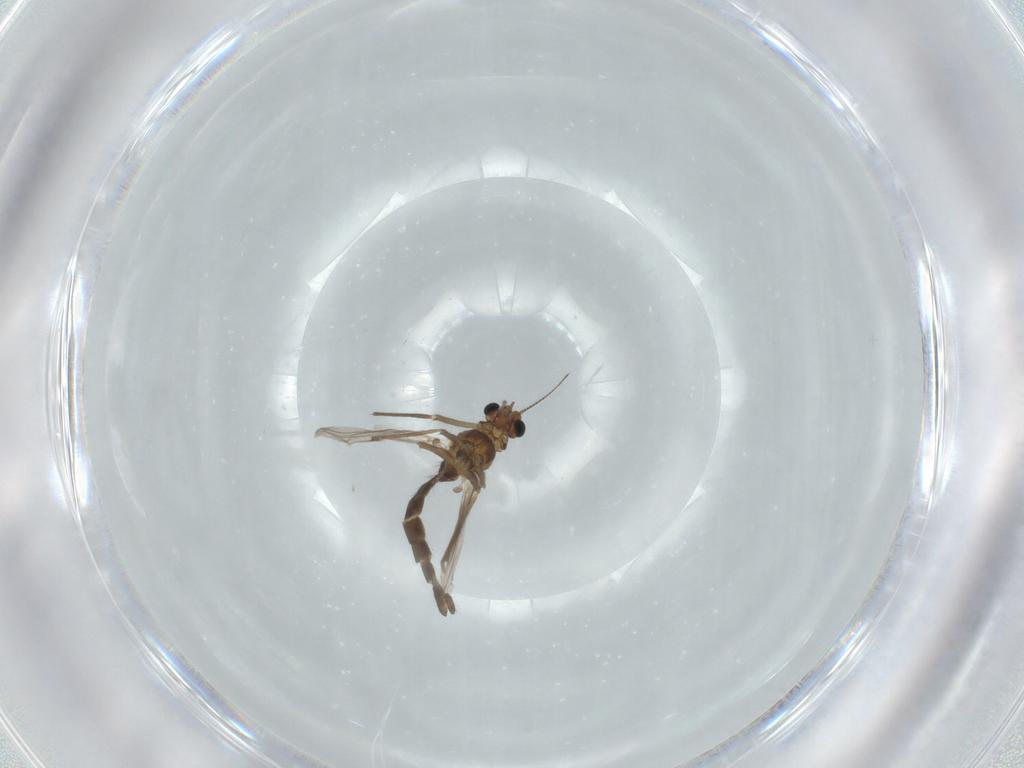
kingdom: Animalia
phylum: Arthropoda
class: Insecta
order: Diptera
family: Chironomidae
